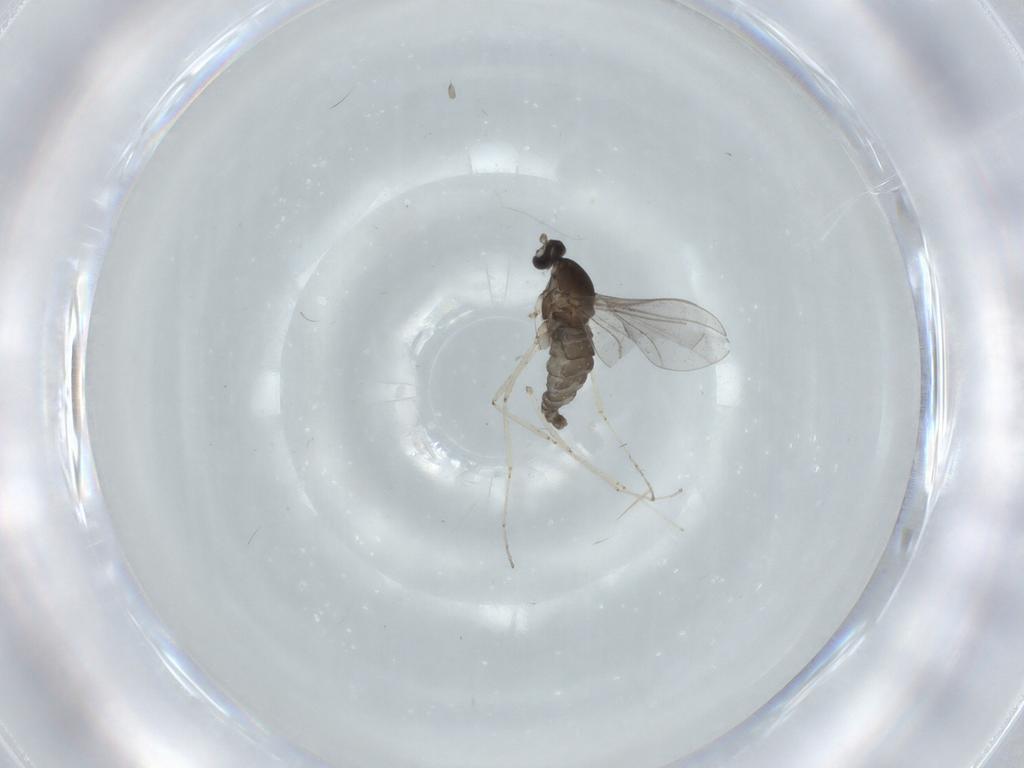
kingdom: Animalia
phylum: Arthropoda
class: Insecta
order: Diptera
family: Cecidomyiidae
